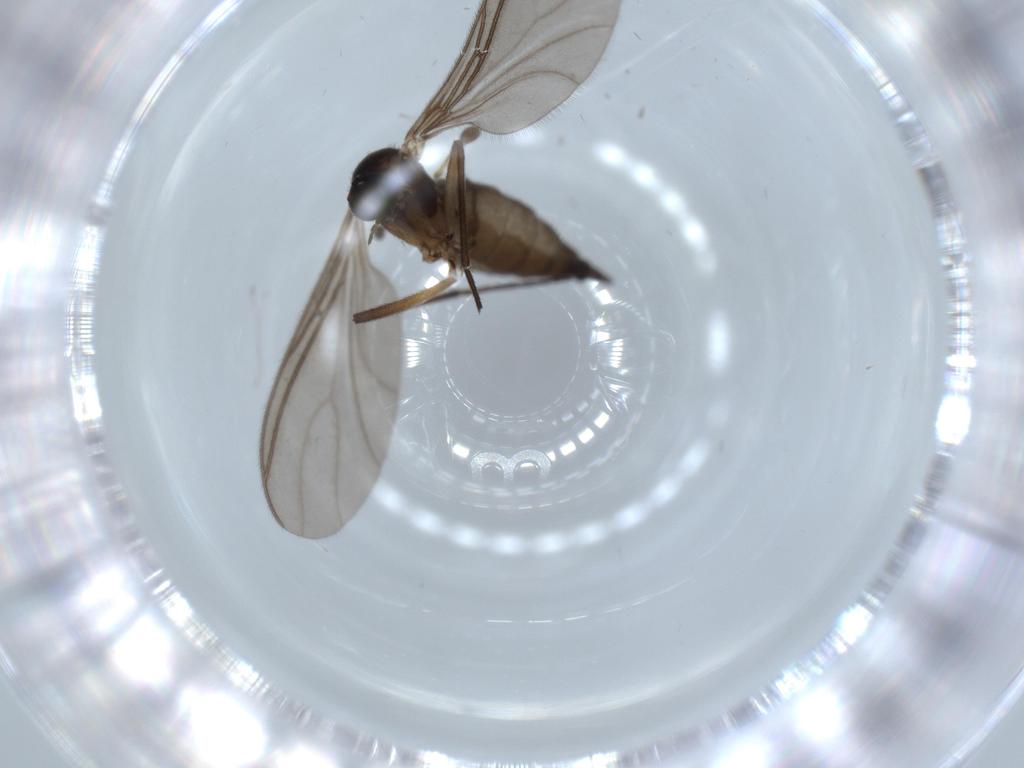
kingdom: Animalia
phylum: Arthropoda
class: Insecta
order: Diptera
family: Sciaridae
